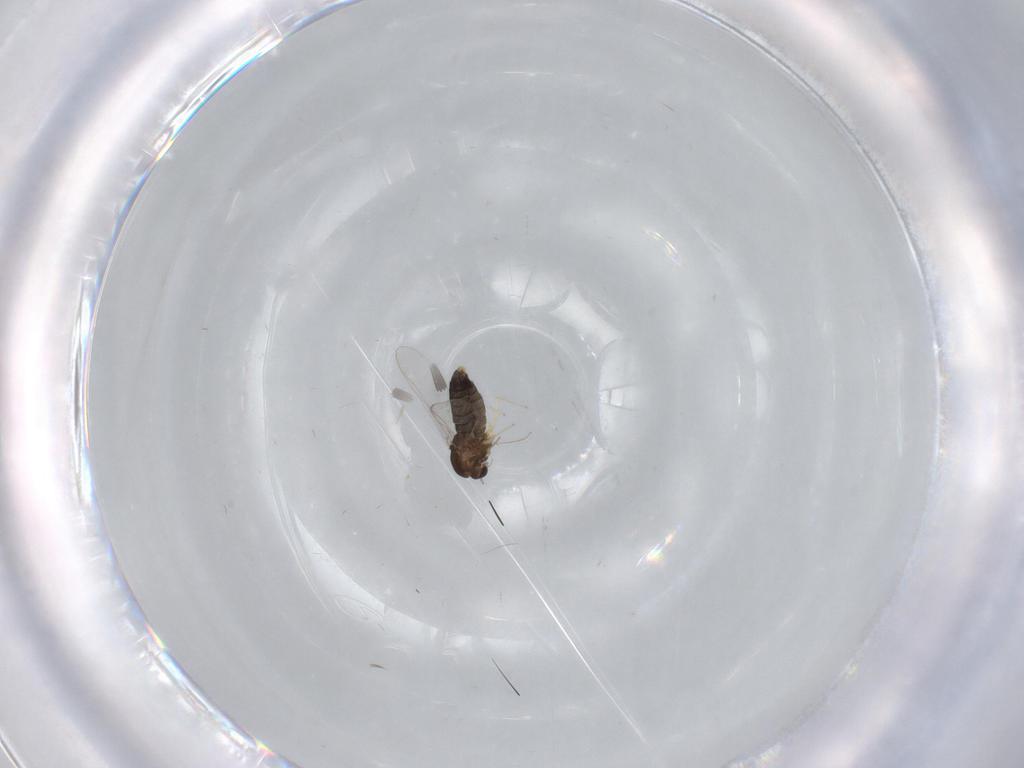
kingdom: Animalia
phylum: Arthropoda
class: Insecta
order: Diptera
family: Chironomidae
